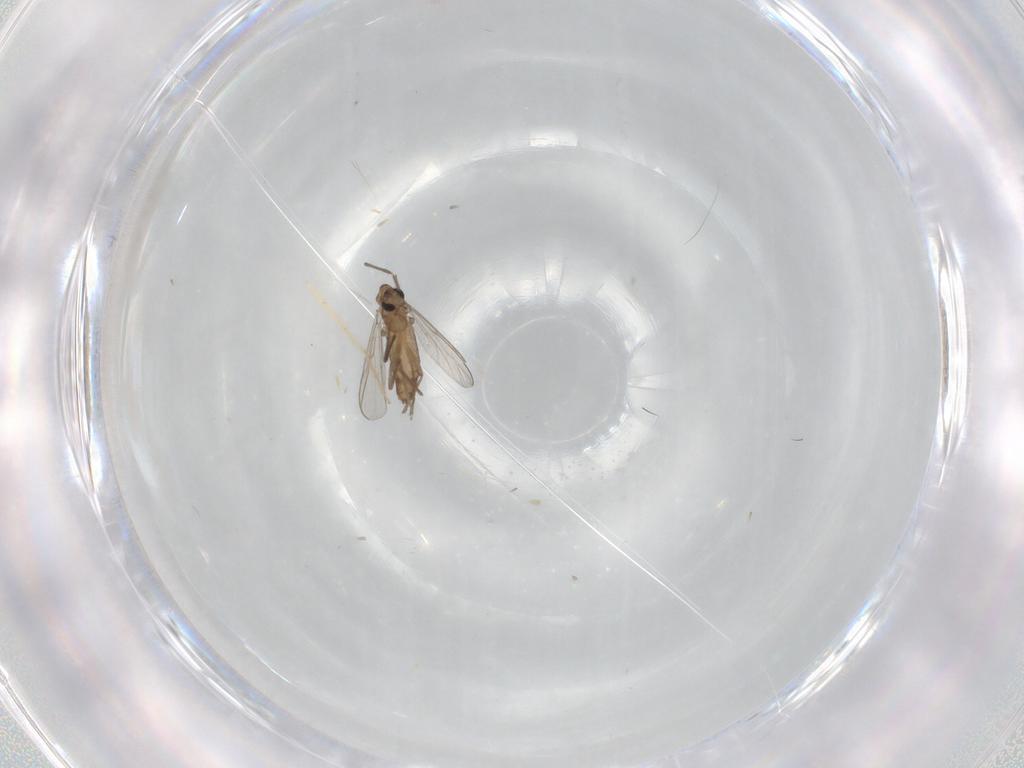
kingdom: Animalia
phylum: Arthropoda
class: Insecta
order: Diptera
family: Chironomidae
